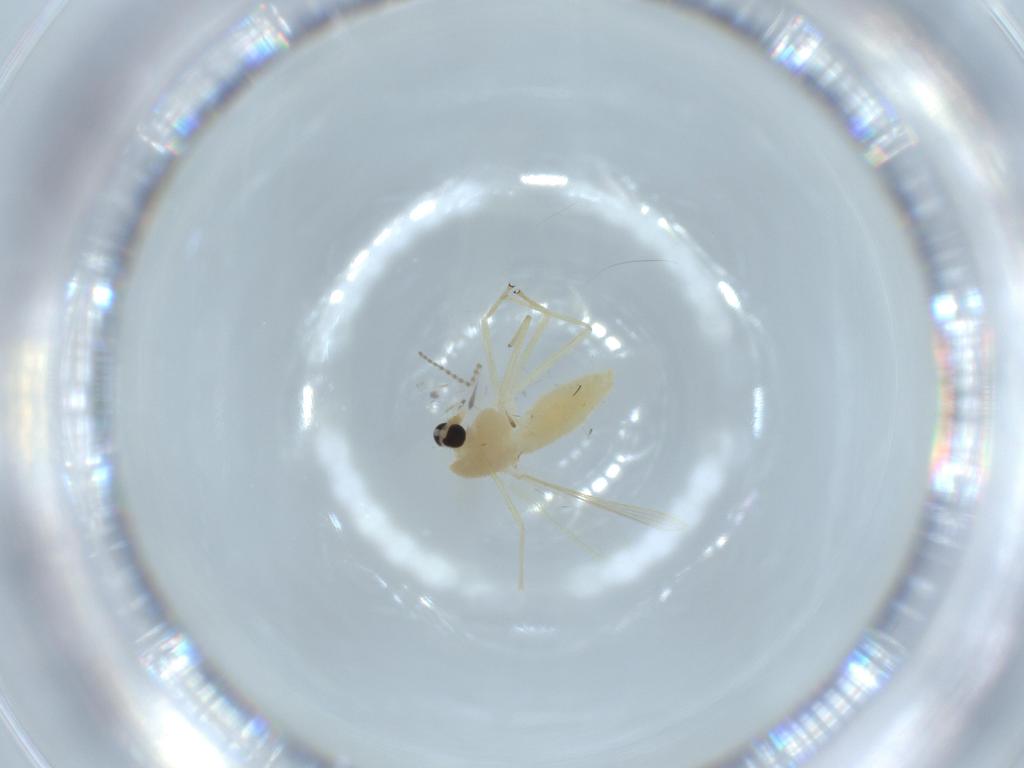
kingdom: Animalia
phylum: Arthropoda
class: Insecta
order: Diptera
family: Chironomidae
